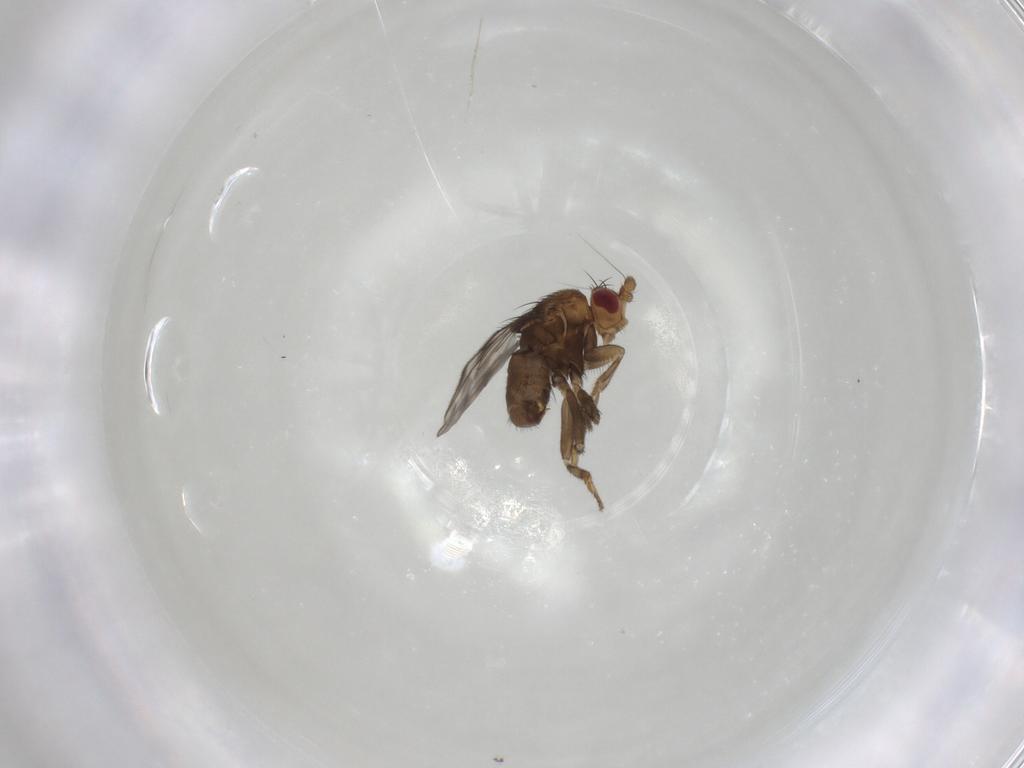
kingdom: Animalia
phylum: Arthropoda
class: Insecta
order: Diptera
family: Sphaeroceridae
